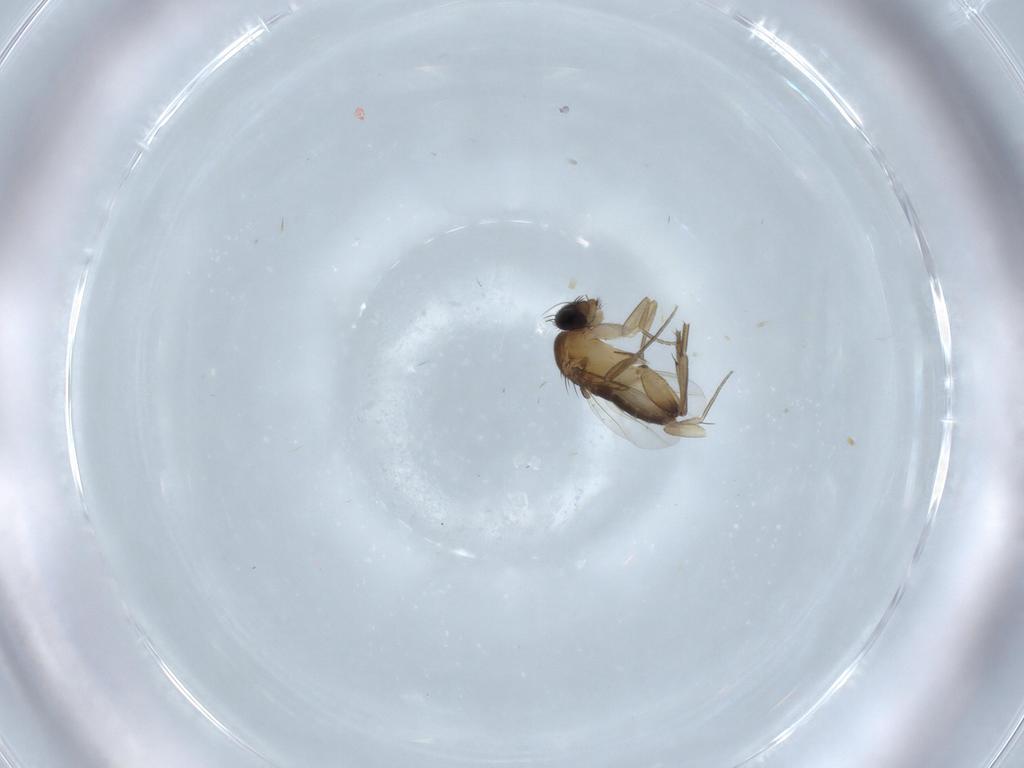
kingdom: Animalia
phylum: Arthropoda
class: Insecta
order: Diptera
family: Phoridae
